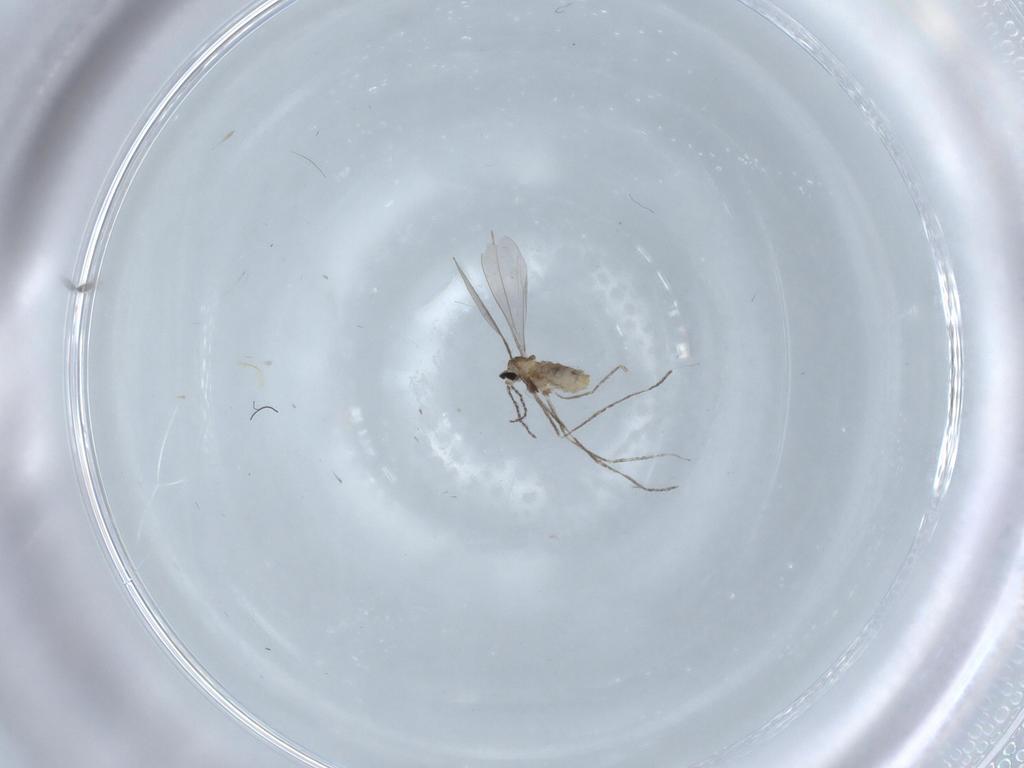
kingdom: Animalia
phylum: Arthropoda
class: Insecta
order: Diptera
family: Cecidomyiidae
